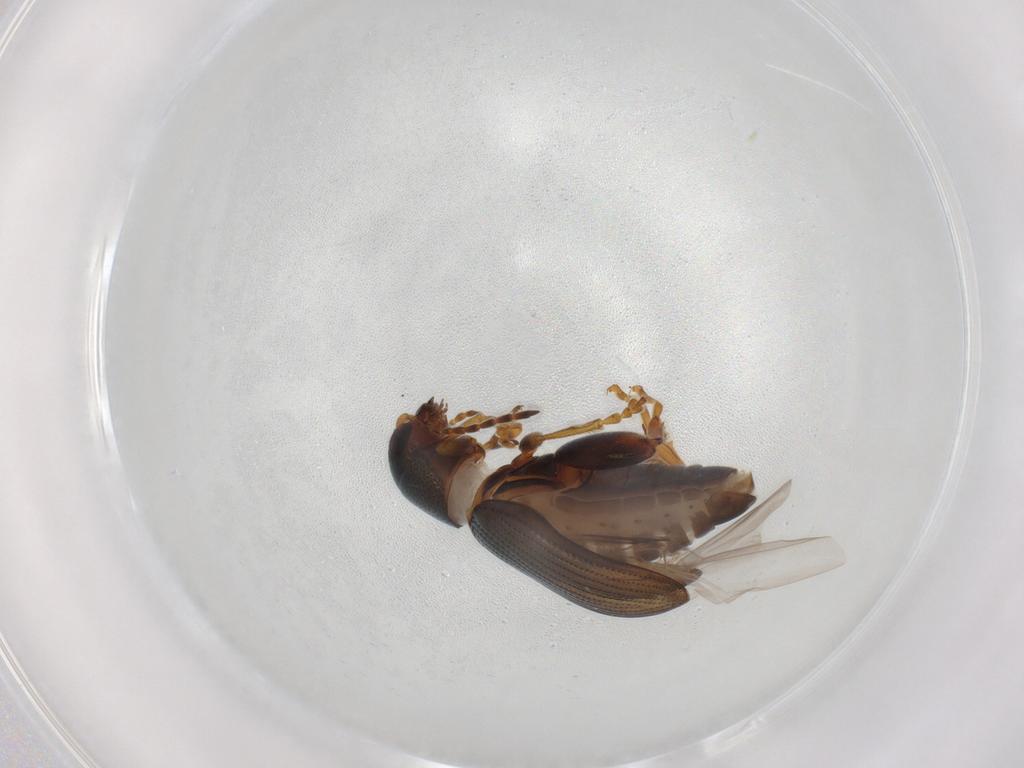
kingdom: Animalia
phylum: Arthropoda
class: Insecta
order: Coleoptera
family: Chrysomelidae
